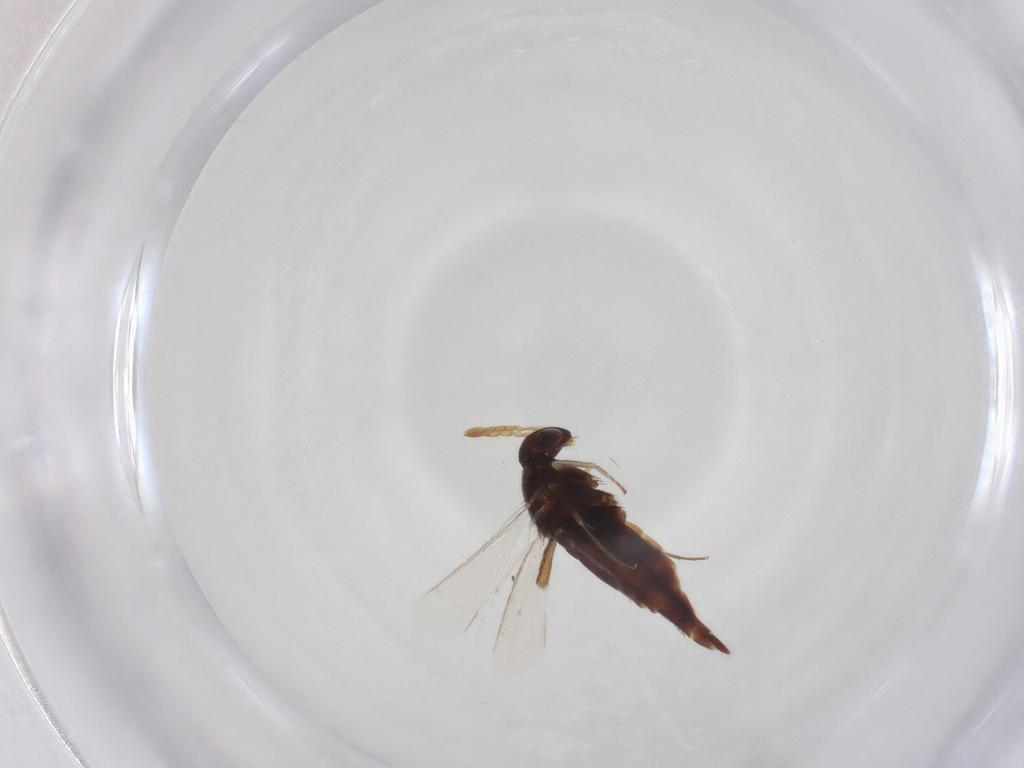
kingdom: Animalia
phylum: Arthropoda
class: Insecta
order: Hymenoptera
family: Eulophidae
